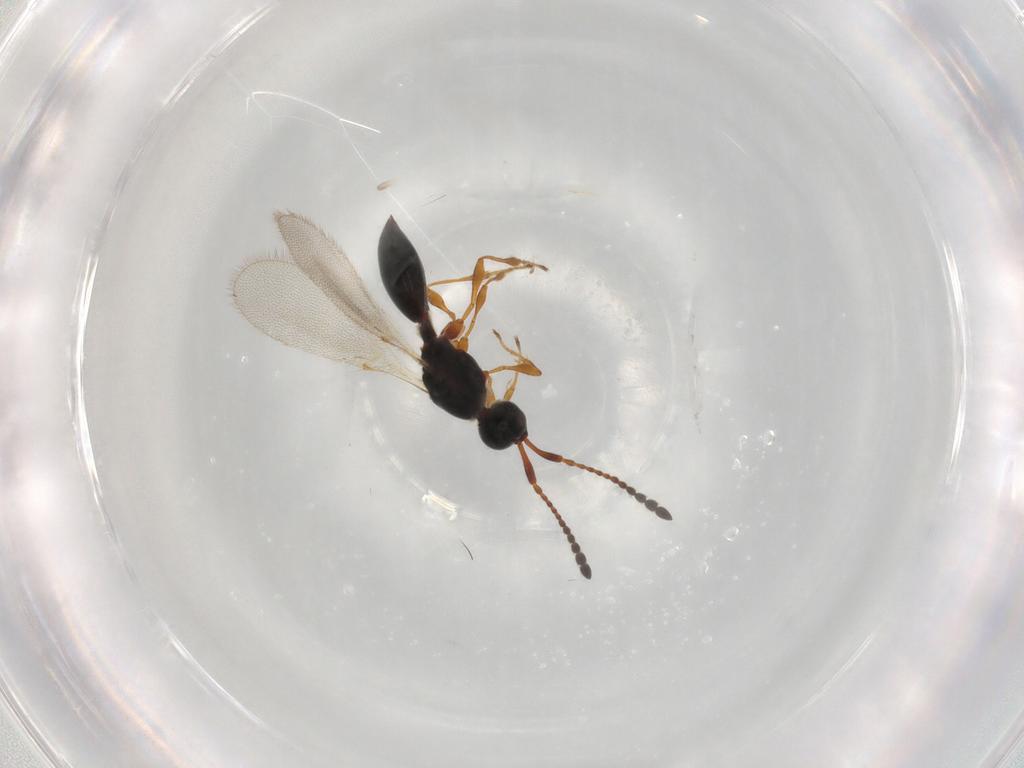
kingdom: Animalia
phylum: Arthropoda
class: Insecta
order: Hymenoptera
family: Diapriidae
